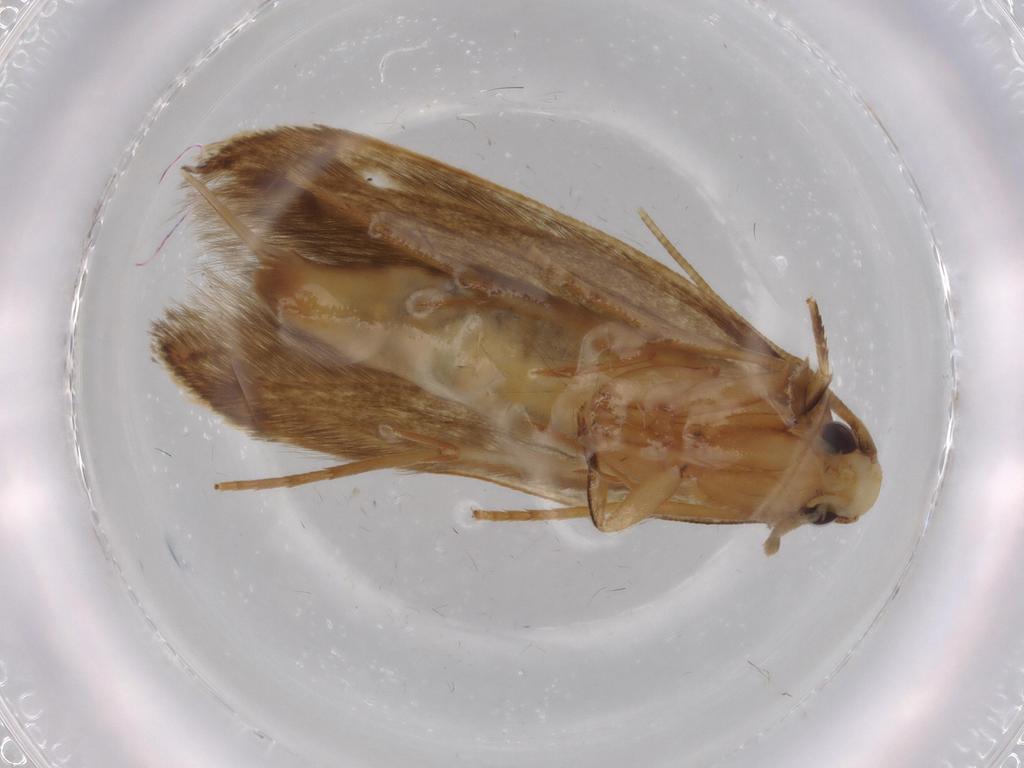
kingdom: Animalia
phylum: Arthropoda
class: Insecta
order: Lepidoptera
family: Tineidae
